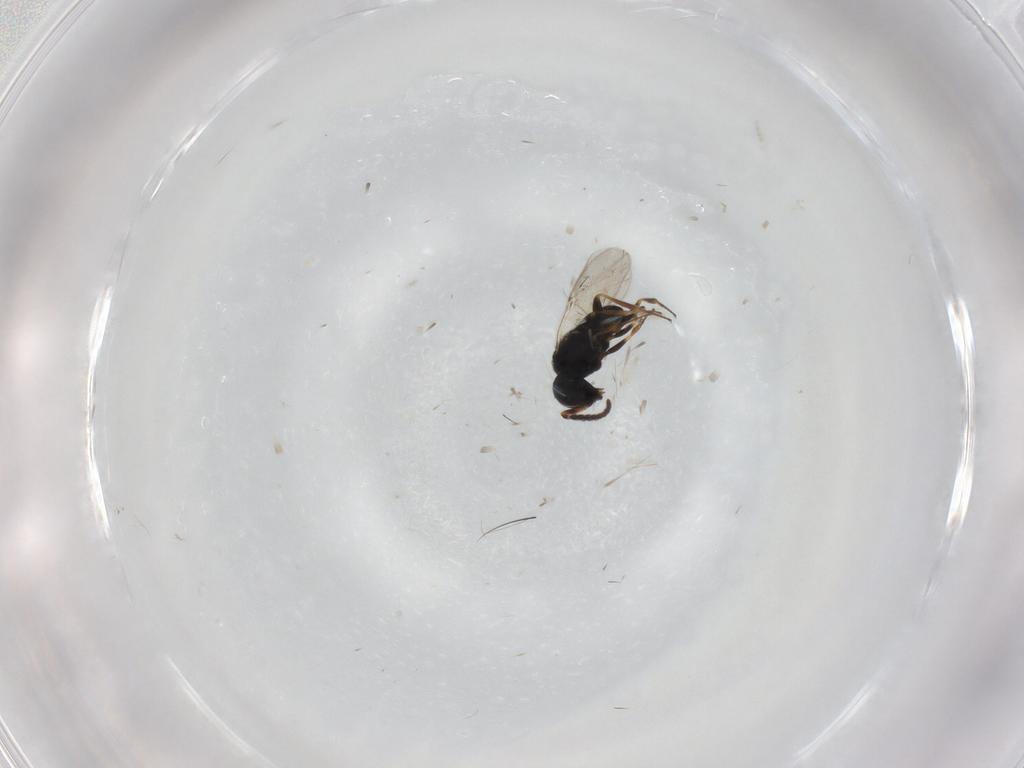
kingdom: Animalia
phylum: Arthropoda
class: Insecta
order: Coleoptera
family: Curculionidae
